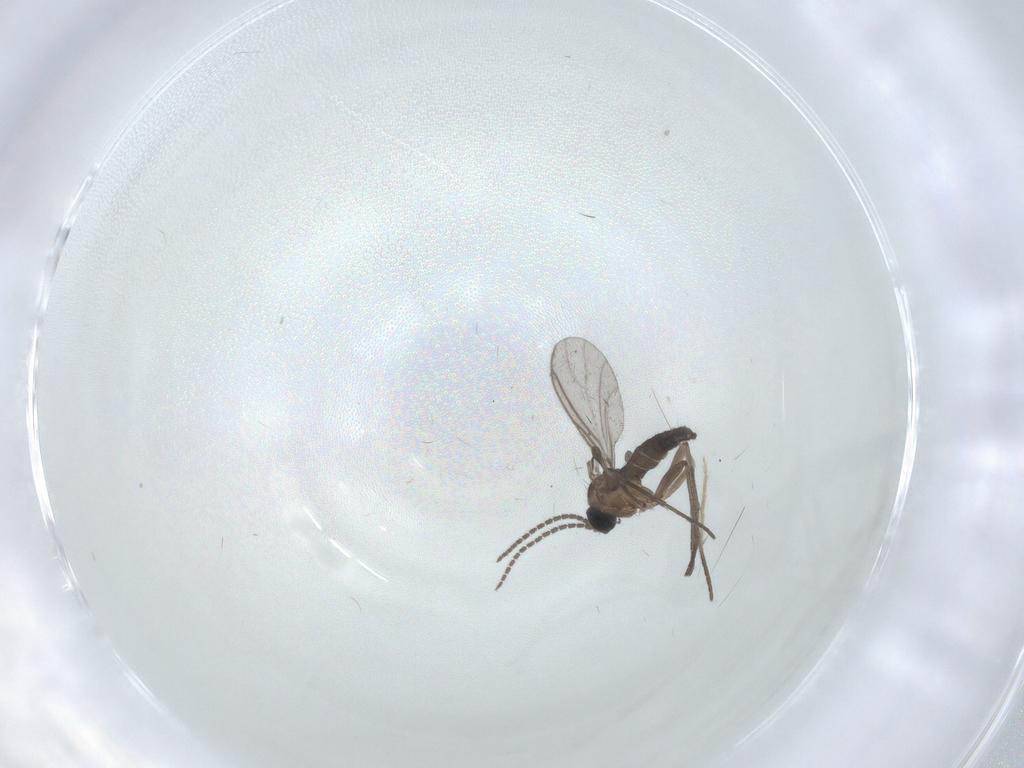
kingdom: Animalia
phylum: Arthropoda
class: Insecta
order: Diptera
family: Cecidomyiidae
